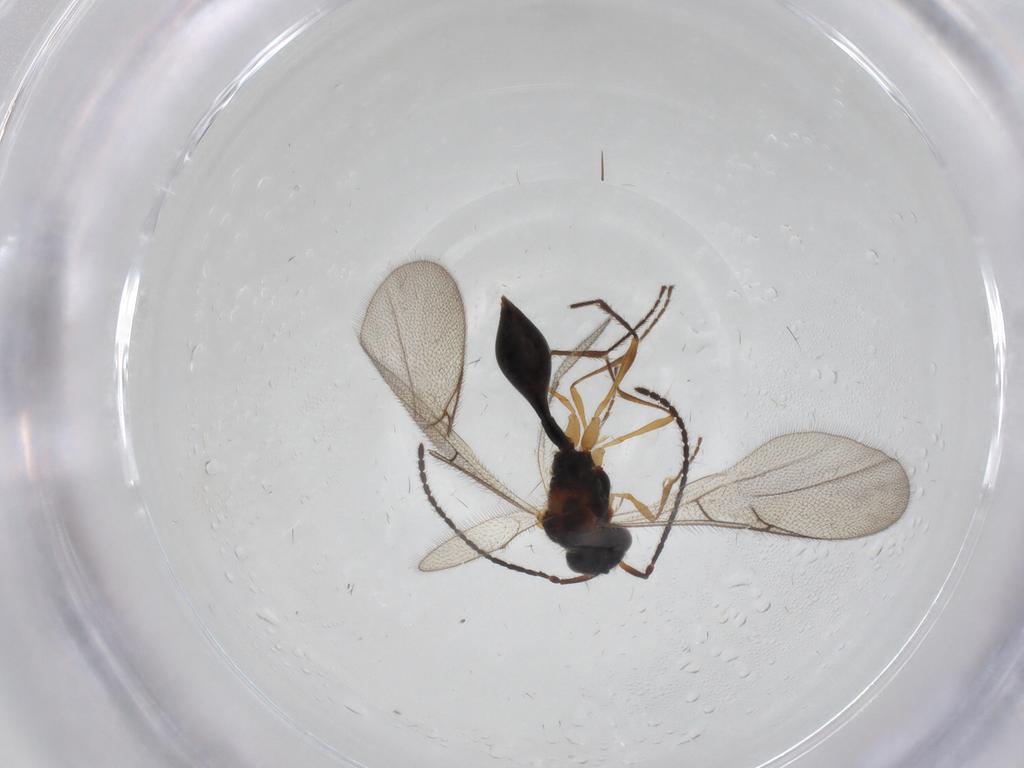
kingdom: Animalia
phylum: Arthropoda
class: Insecta
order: Hymenoptera
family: Diapriidae
